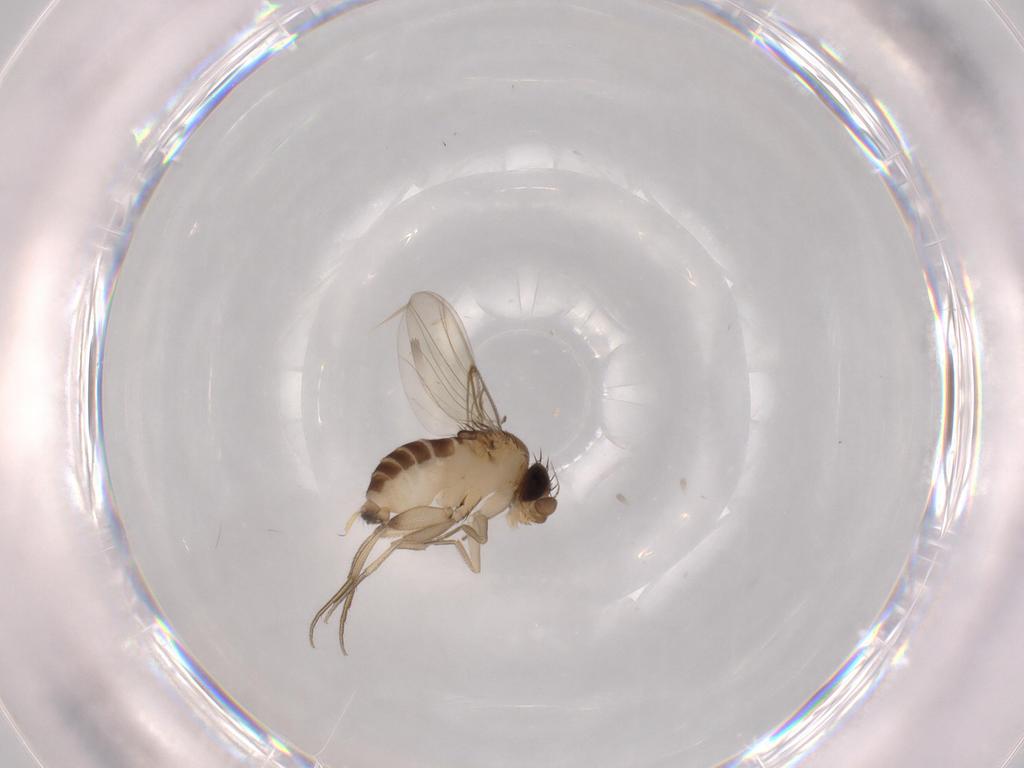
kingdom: Animalia
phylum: Arthropoda
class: Insecta
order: Diptera
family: Phoridae
